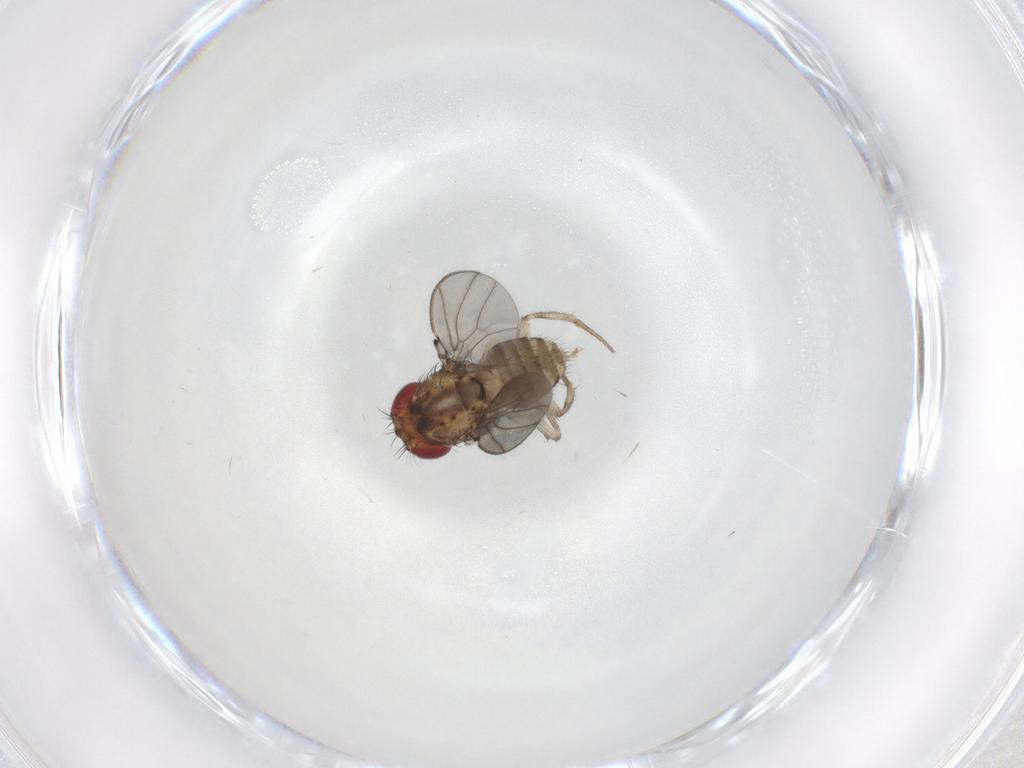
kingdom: Animalia
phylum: Arthropoda
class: Insecta
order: Diptera
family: Drosophilidae
